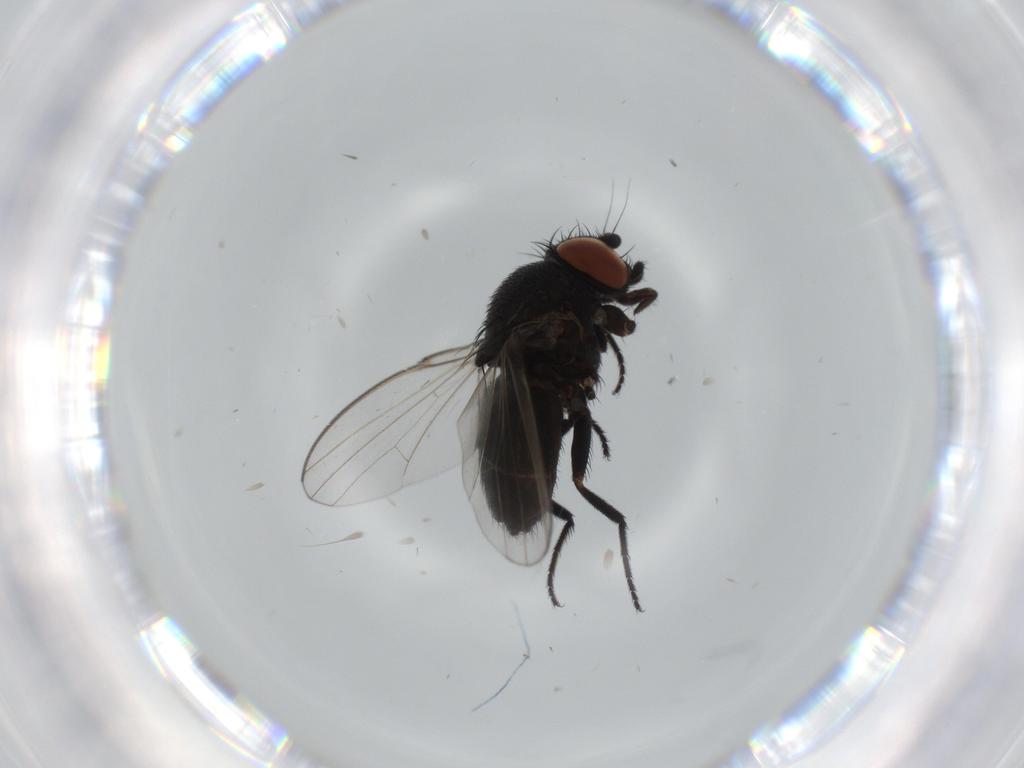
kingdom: Animalia
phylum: Arthropoda
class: Insecta
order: Diptera
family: Milichiidae
